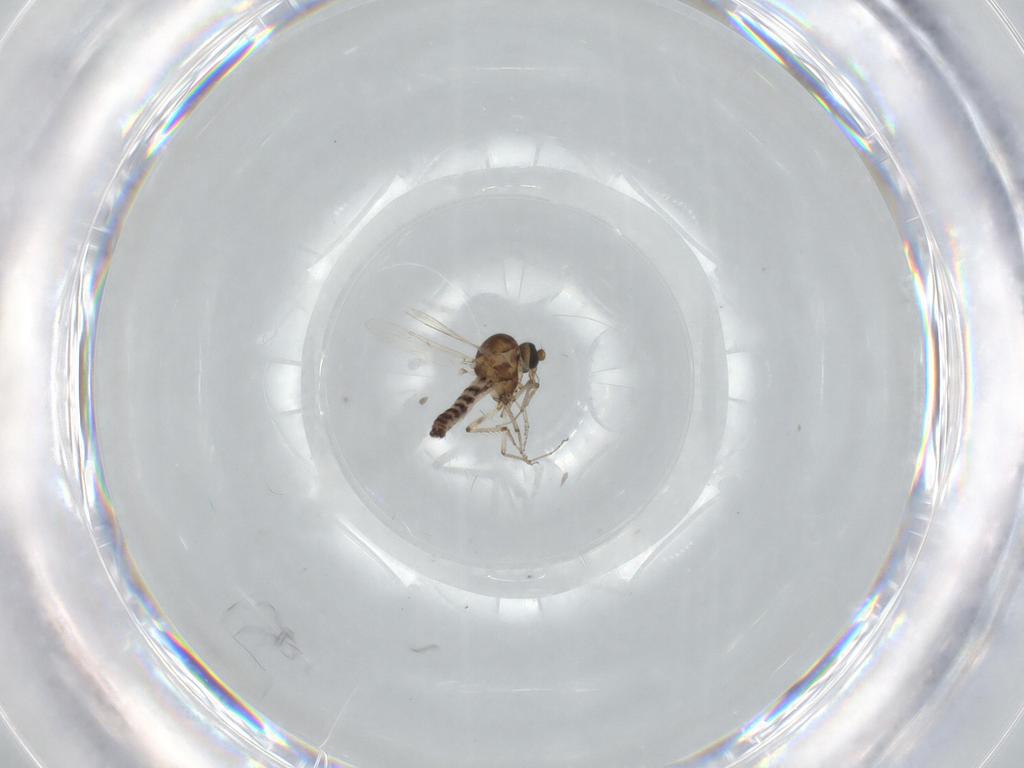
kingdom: Animalia
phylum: Arthropoda
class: Insecta
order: Diptera
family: Ceratopogonidae
